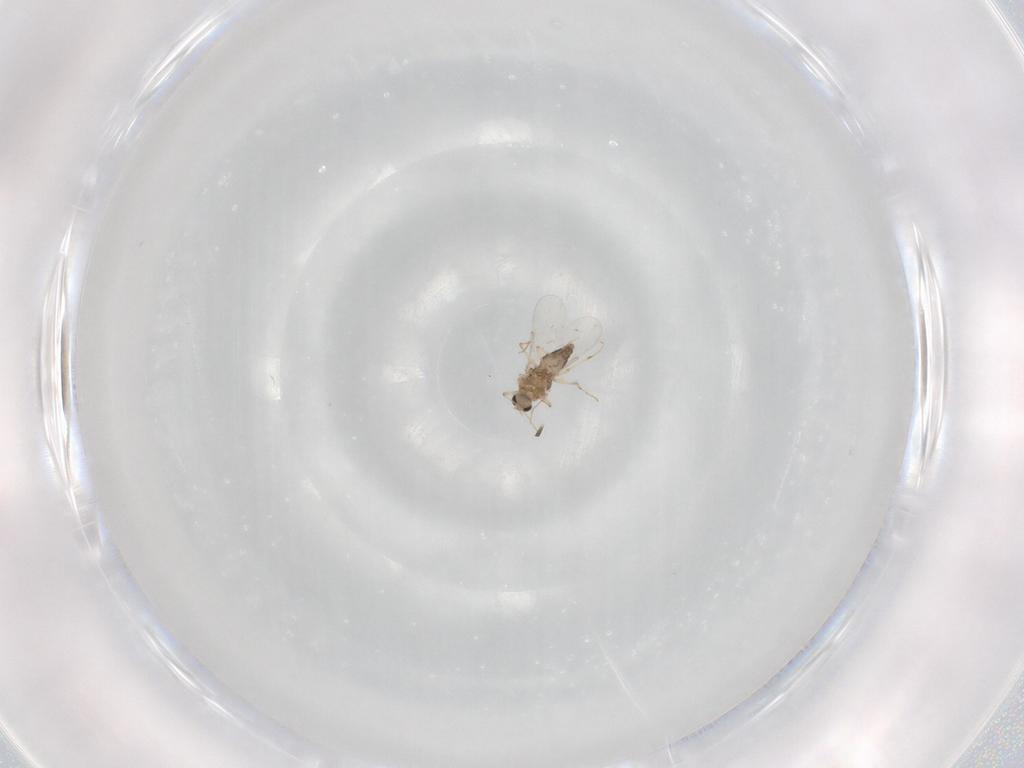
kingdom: Animalia
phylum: Arthropoda
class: Insecta
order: Diptera
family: Chironomidae
